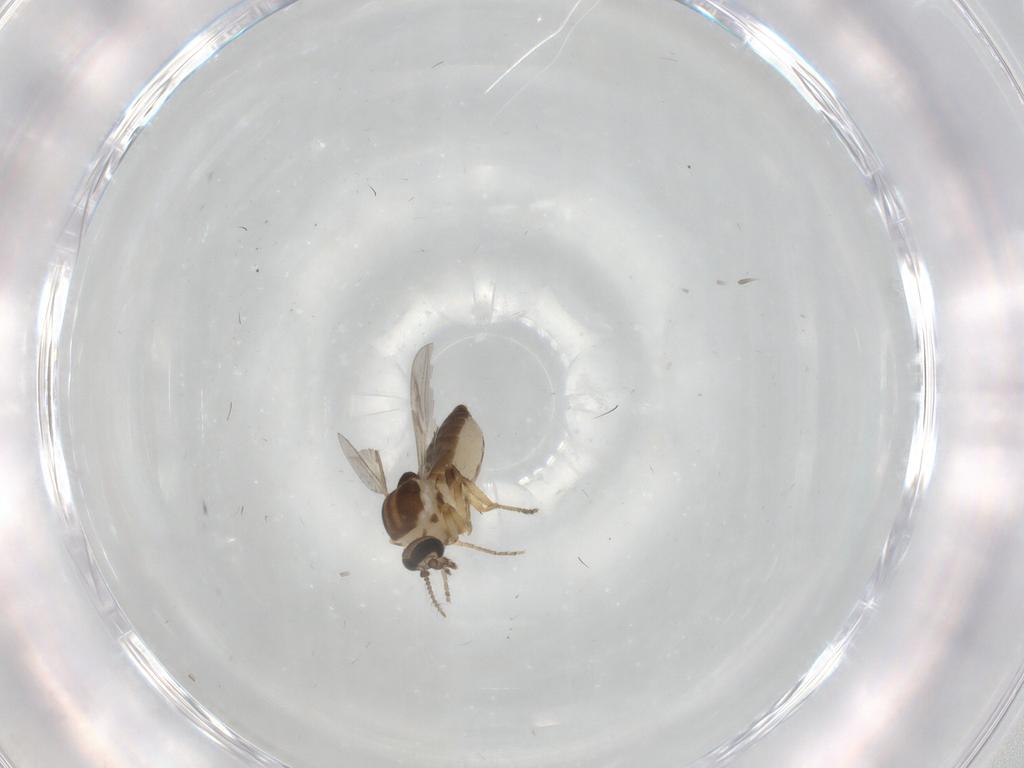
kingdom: Animalia
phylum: Arthropoda
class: Insecta
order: Diptera
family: Ceratopogonidae
